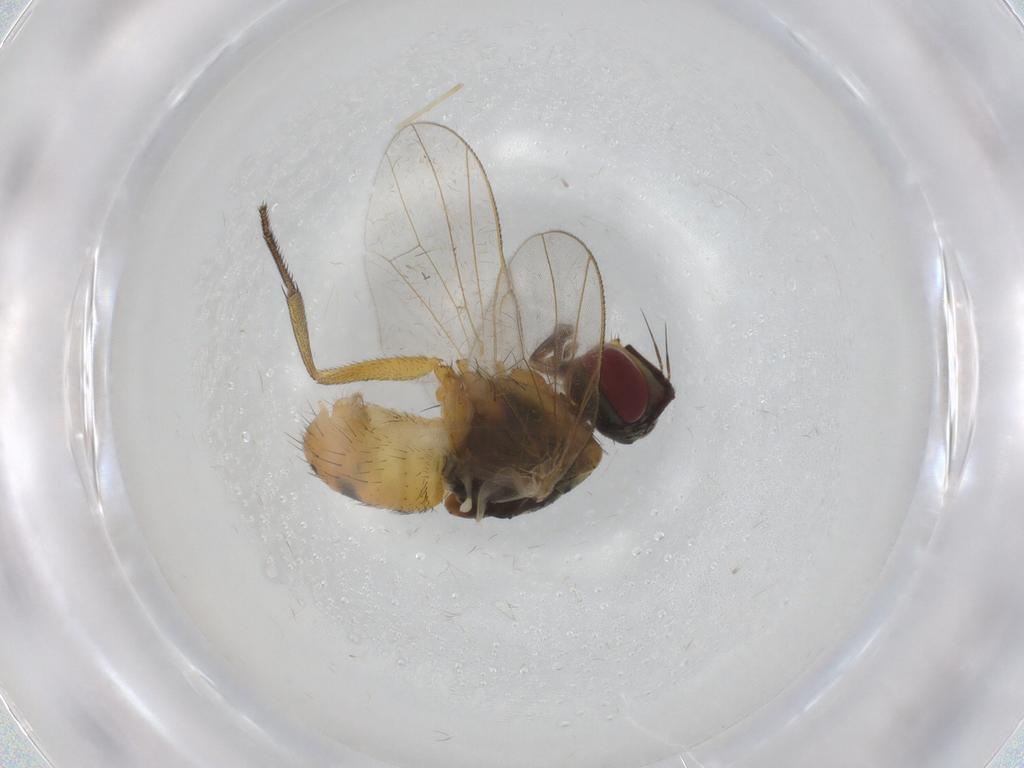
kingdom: Animalia
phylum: Arthropoda
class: Insecta
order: Diptera
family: Muscidae
